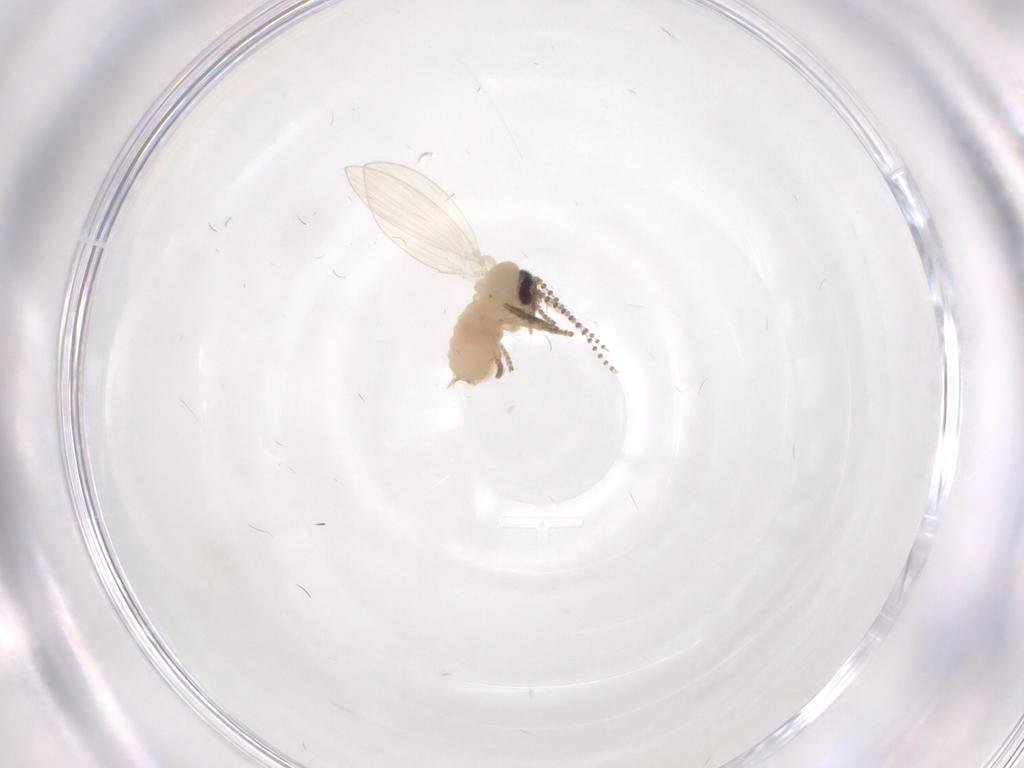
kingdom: Animalia
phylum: Arthropoda
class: Insecta
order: Diptera
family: Psychodidae
